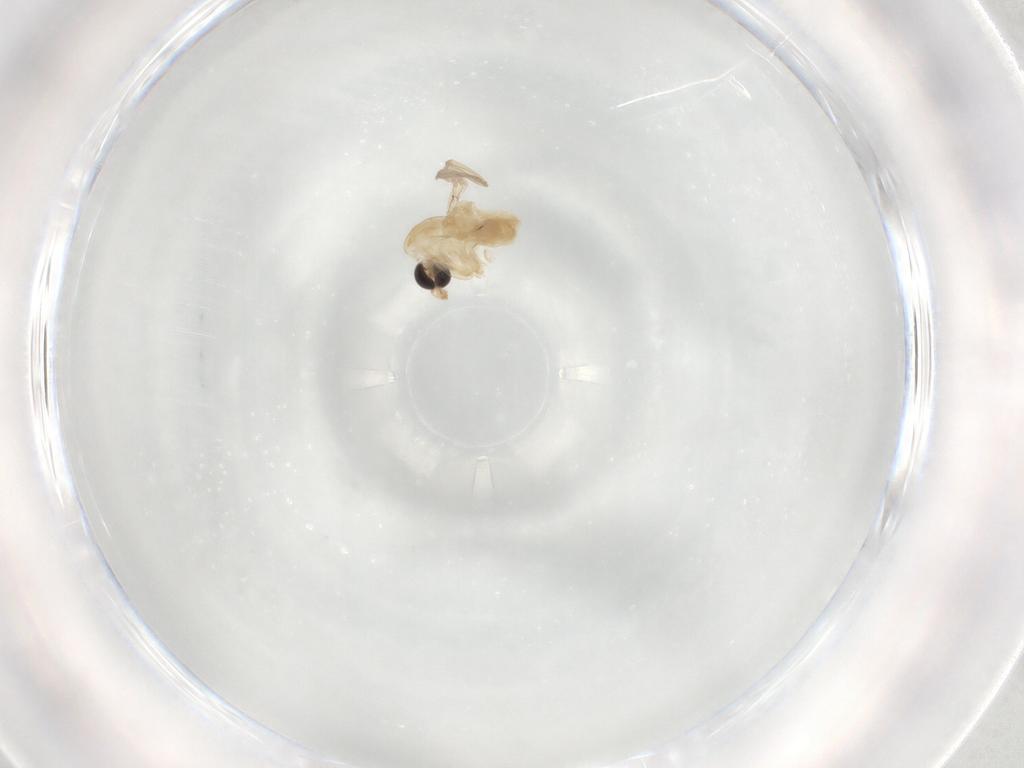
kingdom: Animalia
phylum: Arthropoda
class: Insecta
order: Diptera
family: Chironomidae
